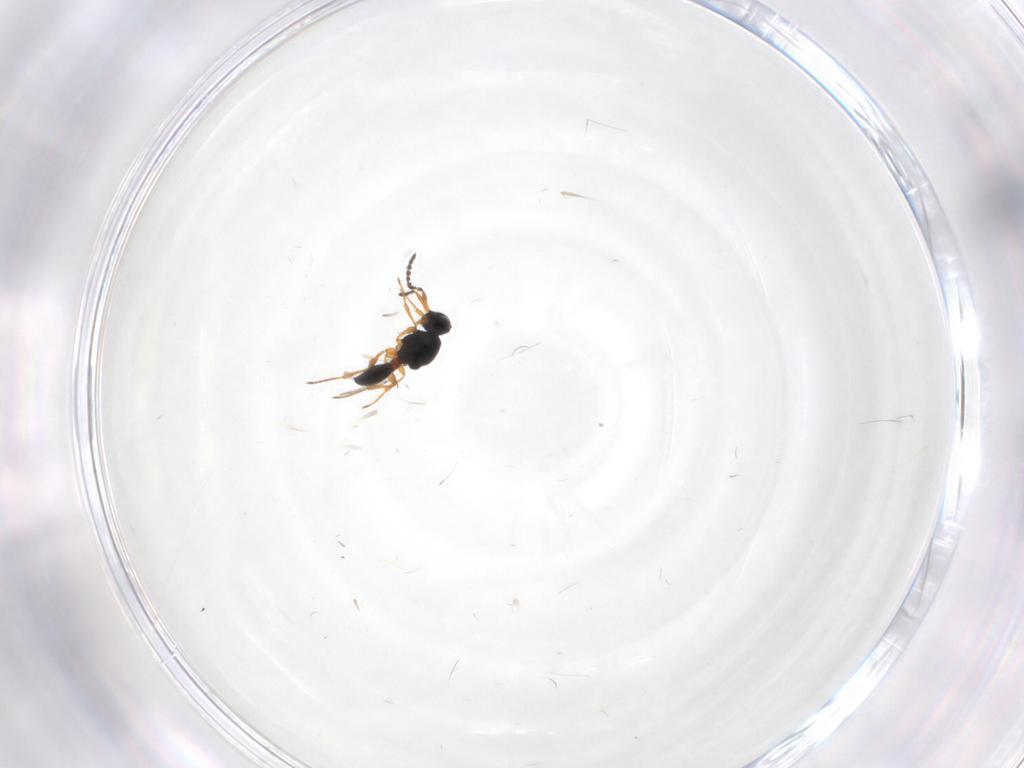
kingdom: Animalia
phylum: Arthropoda
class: Insecta
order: Hymenoptera
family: Platygastridae
